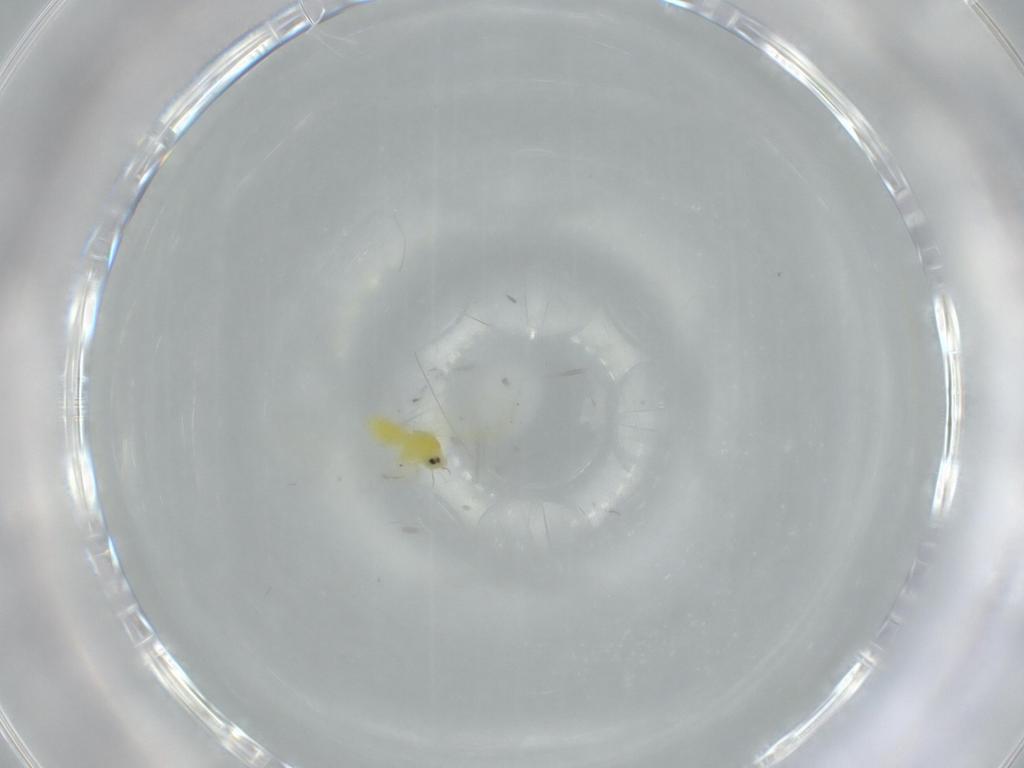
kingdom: Animalia
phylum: Arthropoda
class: Insecta
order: Hemiptera
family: Aleyrodidae
